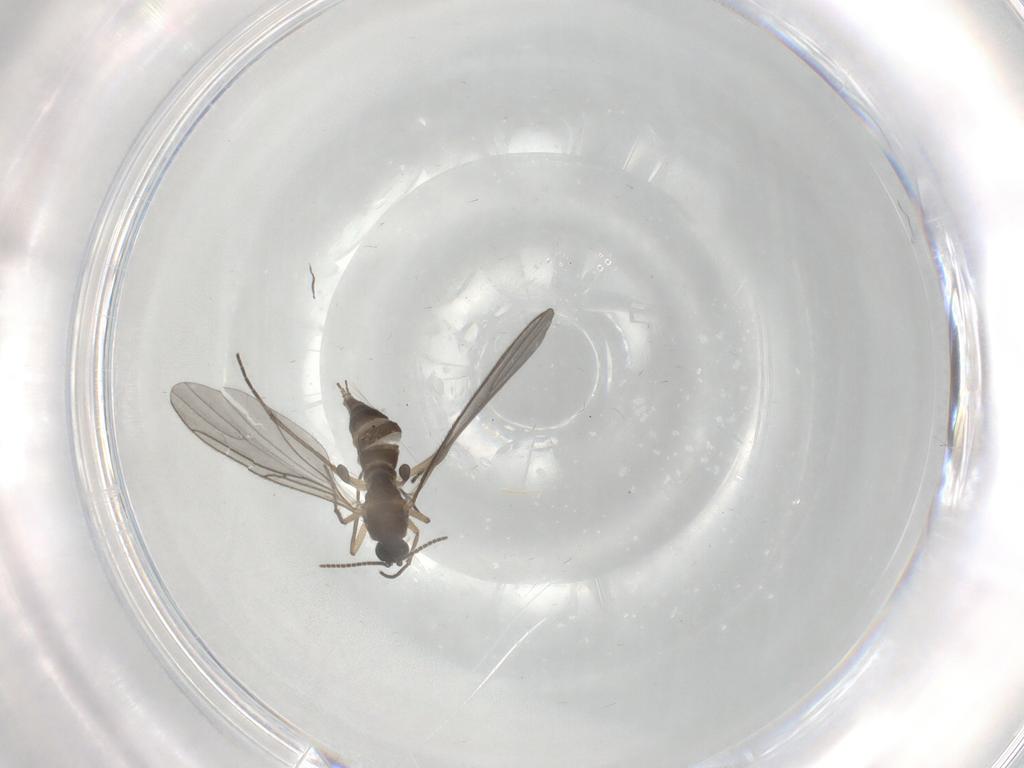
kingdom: Animalia
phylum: Arthropoda
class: Insecta
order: Diptera
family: Sciaridae
